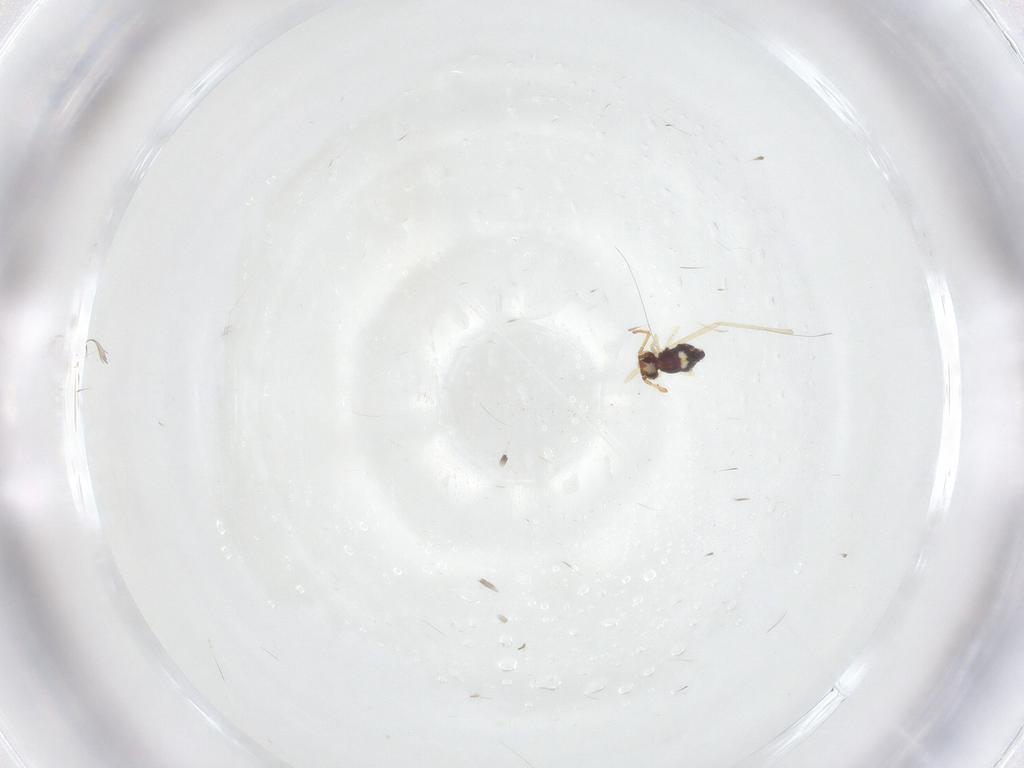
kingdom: Animalia
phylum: Arthropoda
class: Collembola
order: Symphypleona
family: Bourletiellidae
